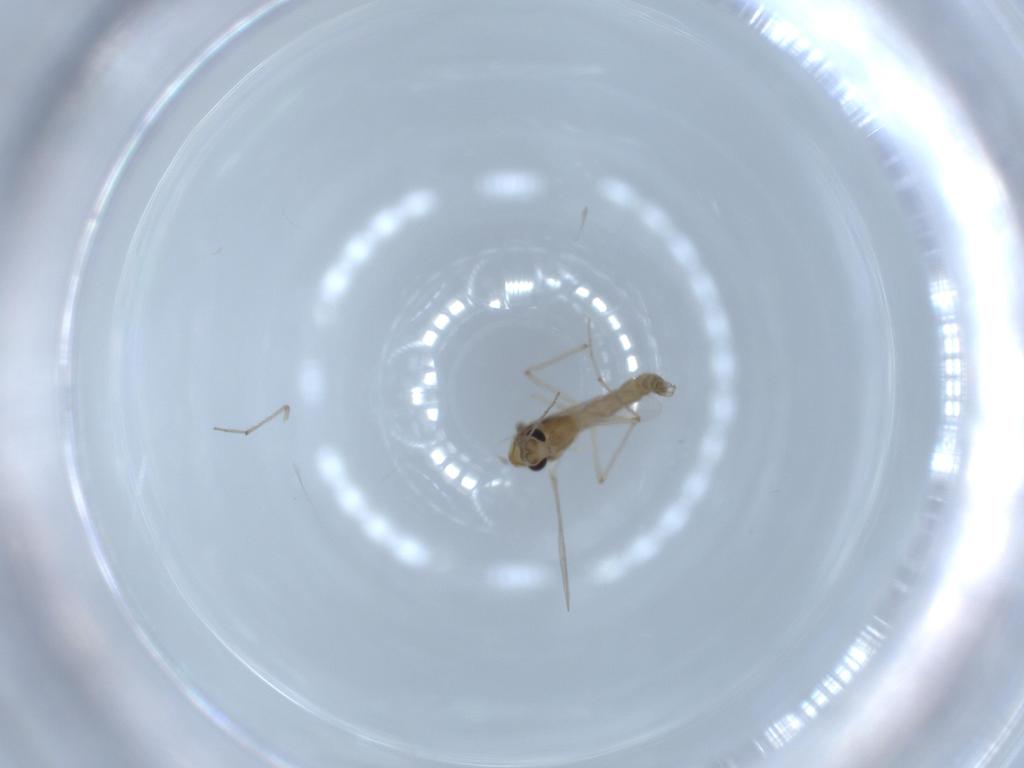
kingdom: Animalia
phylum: Arthropoda
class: Insecta
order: Diptera
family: Chironomidae
